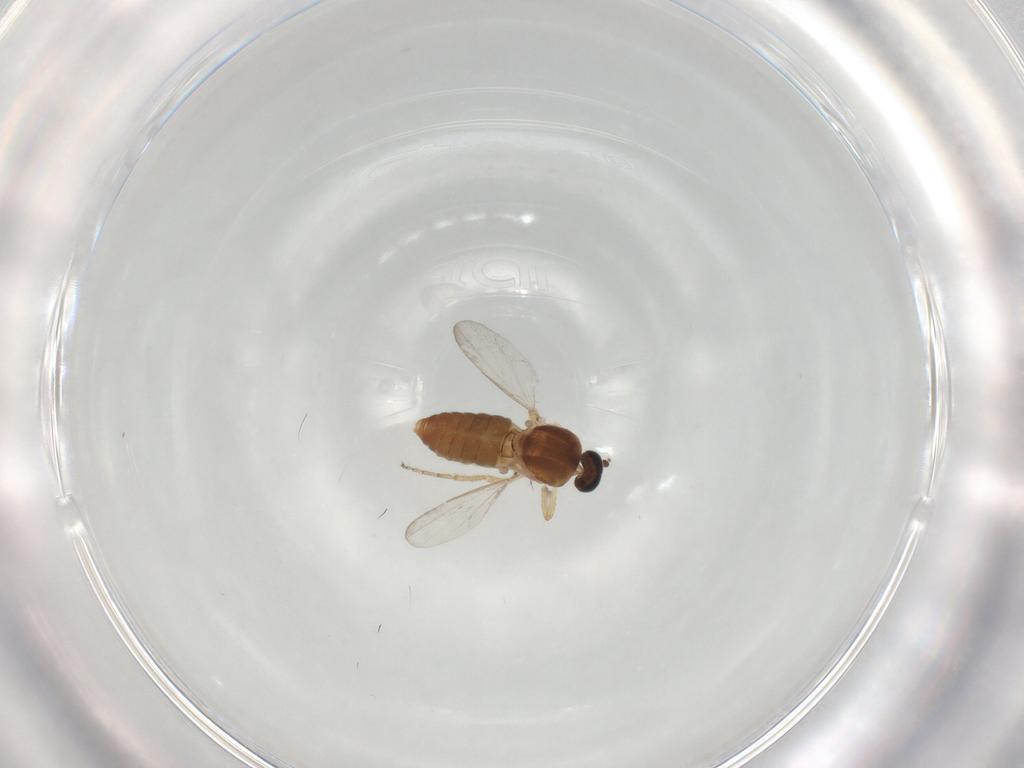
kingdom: Animalia
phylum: Arthropoda
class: Insecta
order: Diptera
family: Ceratopogonidae
